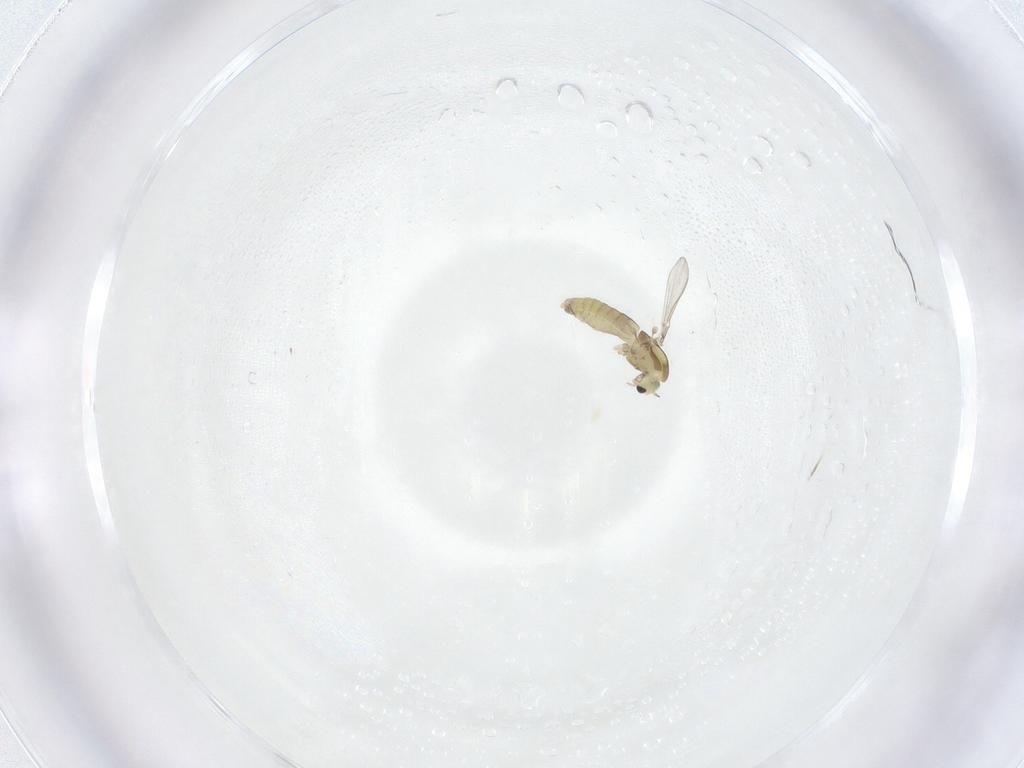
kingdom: Animalia
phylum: Arthropoda
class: Insecta
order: Diptera
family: Chironomidae
